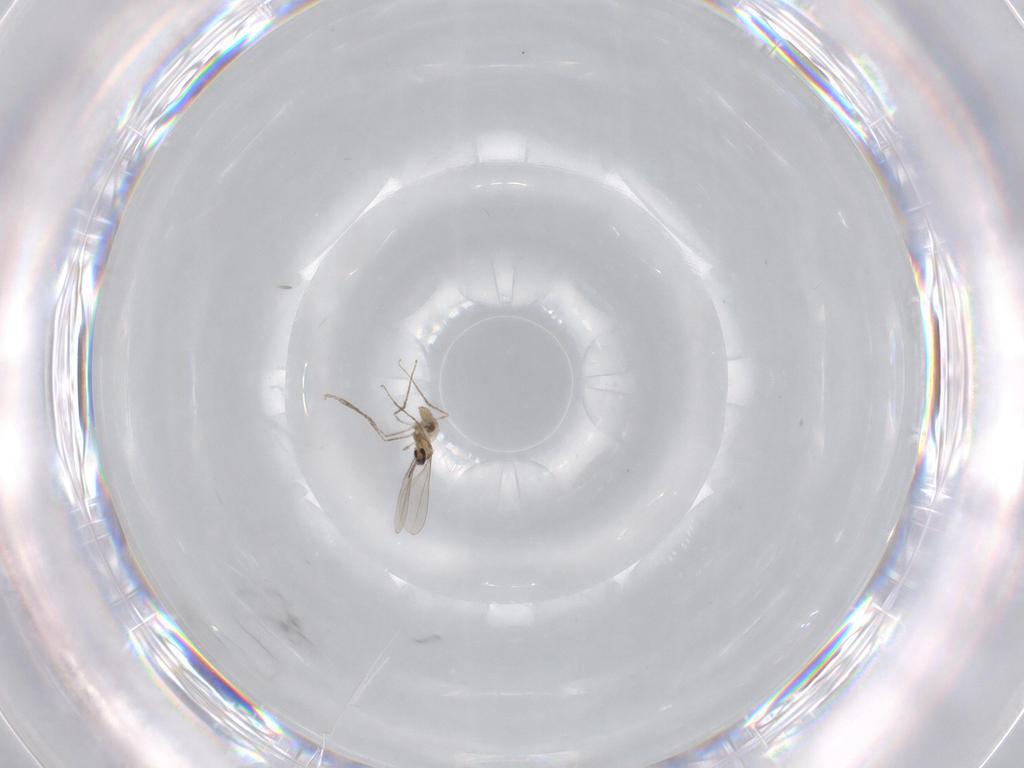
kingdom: Animalia
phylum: Arthropoda
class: Insecta
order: Diptera
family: Cecidomyiidae
